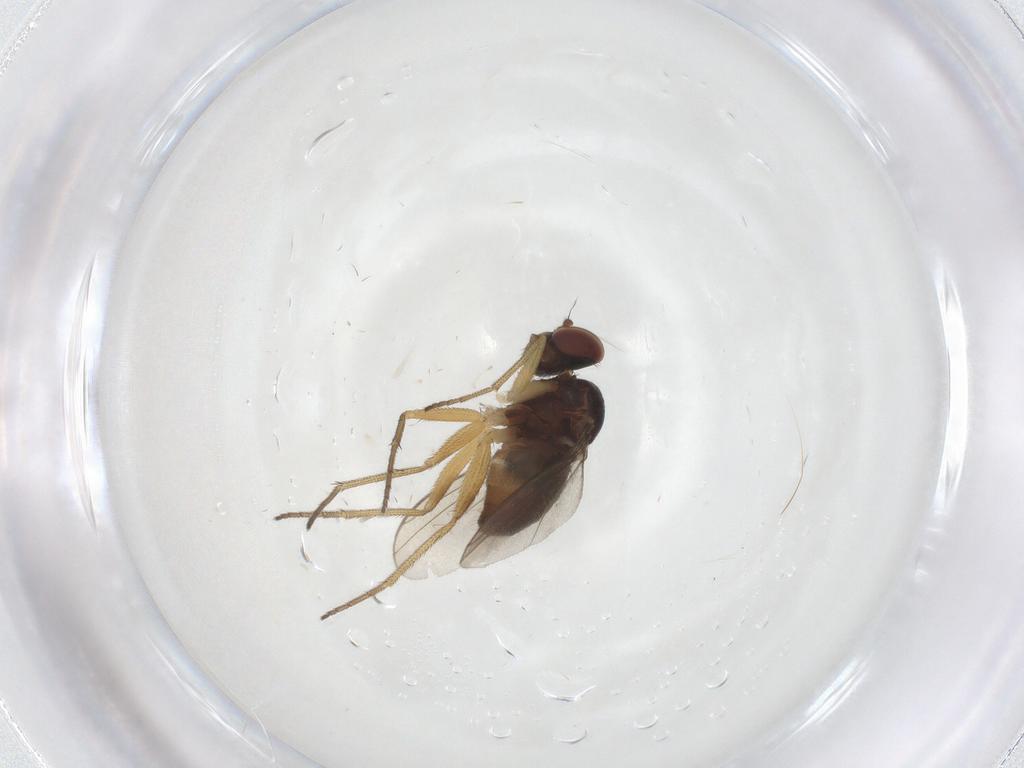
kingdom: Animalia
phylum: Arthropoda
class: Insecta
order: Diptera
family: Dolichopodidae
